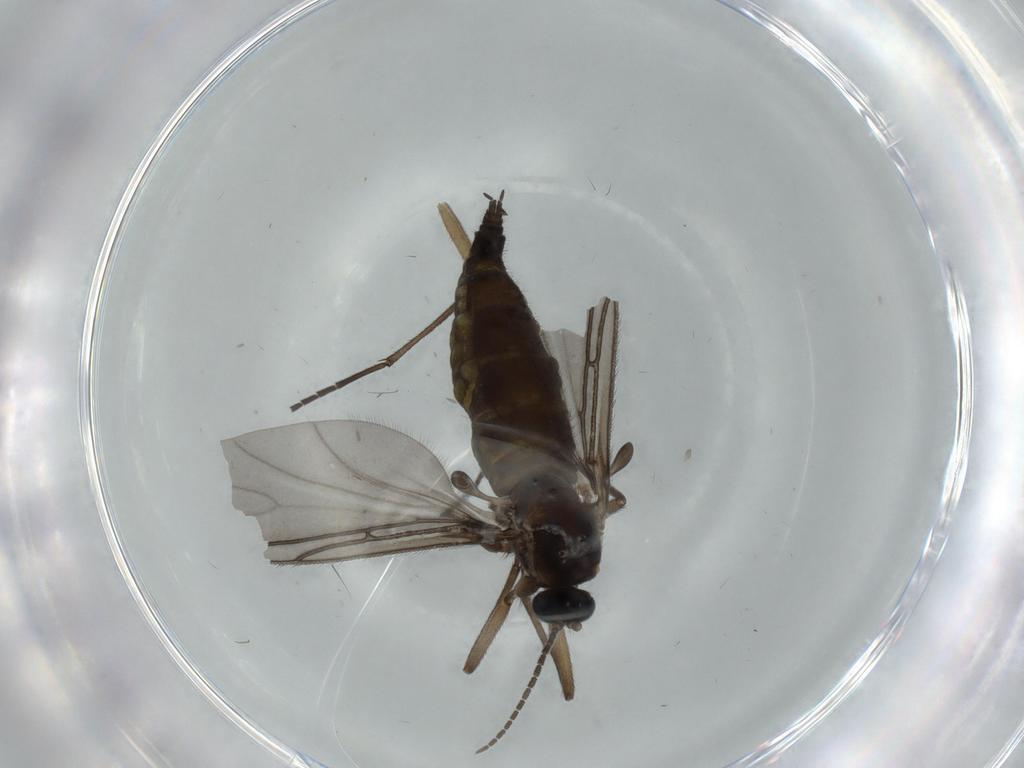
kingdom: Animalia
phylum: Arthropoda
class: Insecta
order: Diptera
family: Sciaridae
